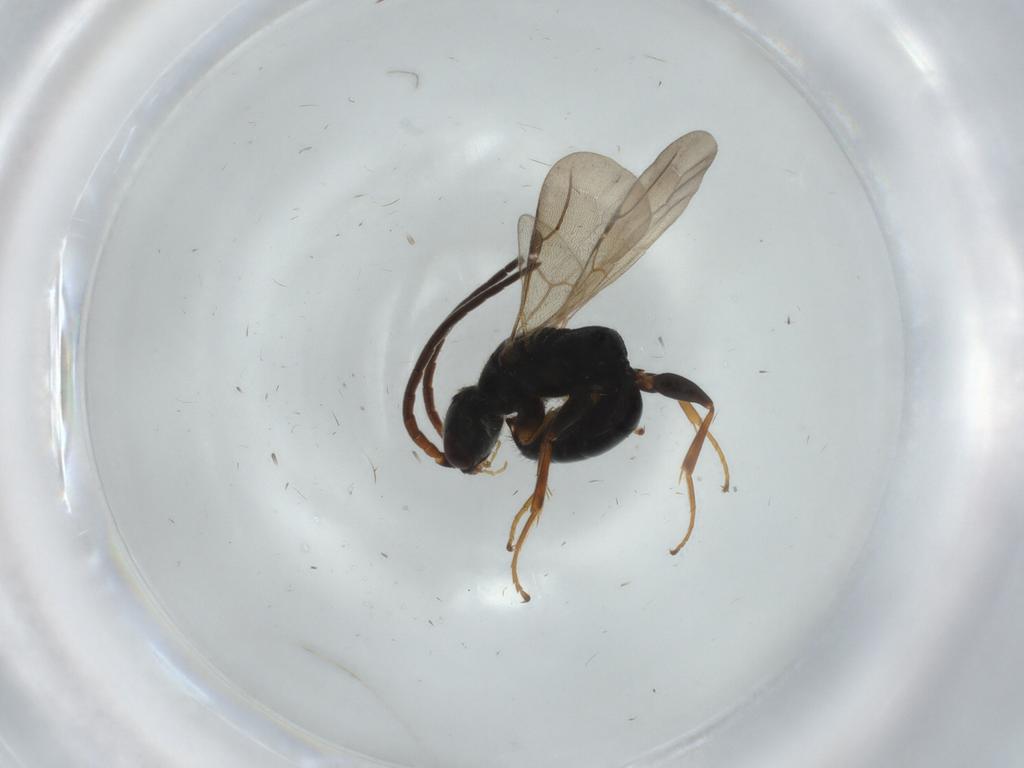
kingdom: Animalia
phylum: Arthropoda
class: Insecta
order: Hymenoptera
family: Bethylidae
